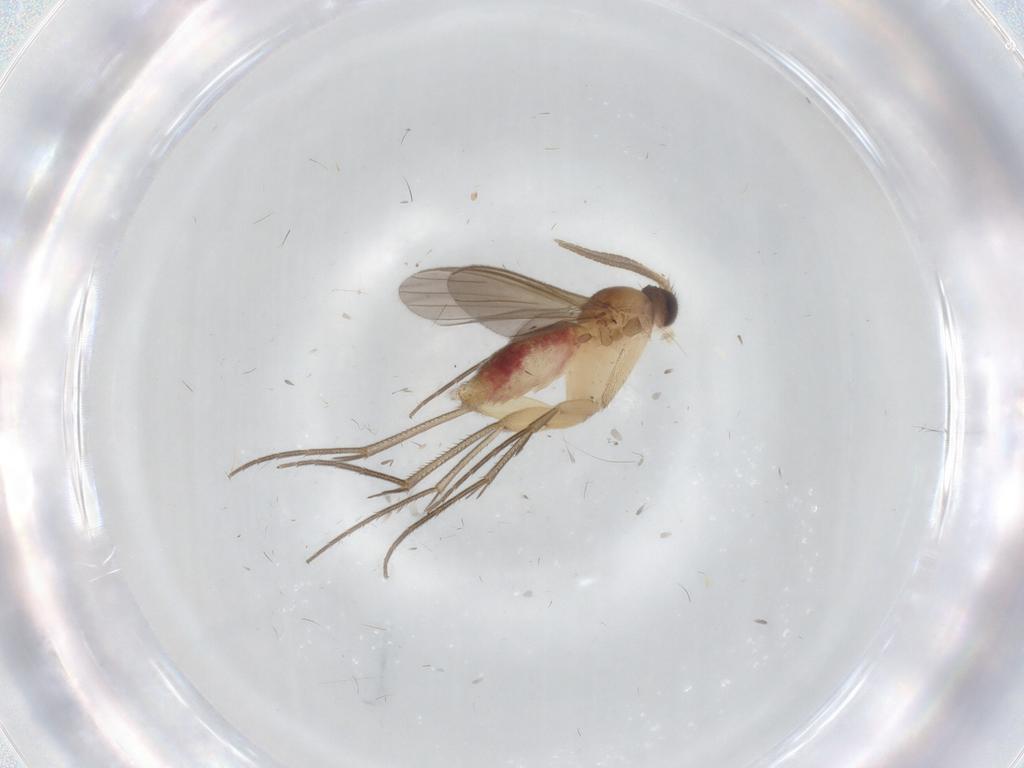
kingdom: Animalia
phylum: Arthropoda
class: Insecta
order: Diptera
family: Mycetophilidae
